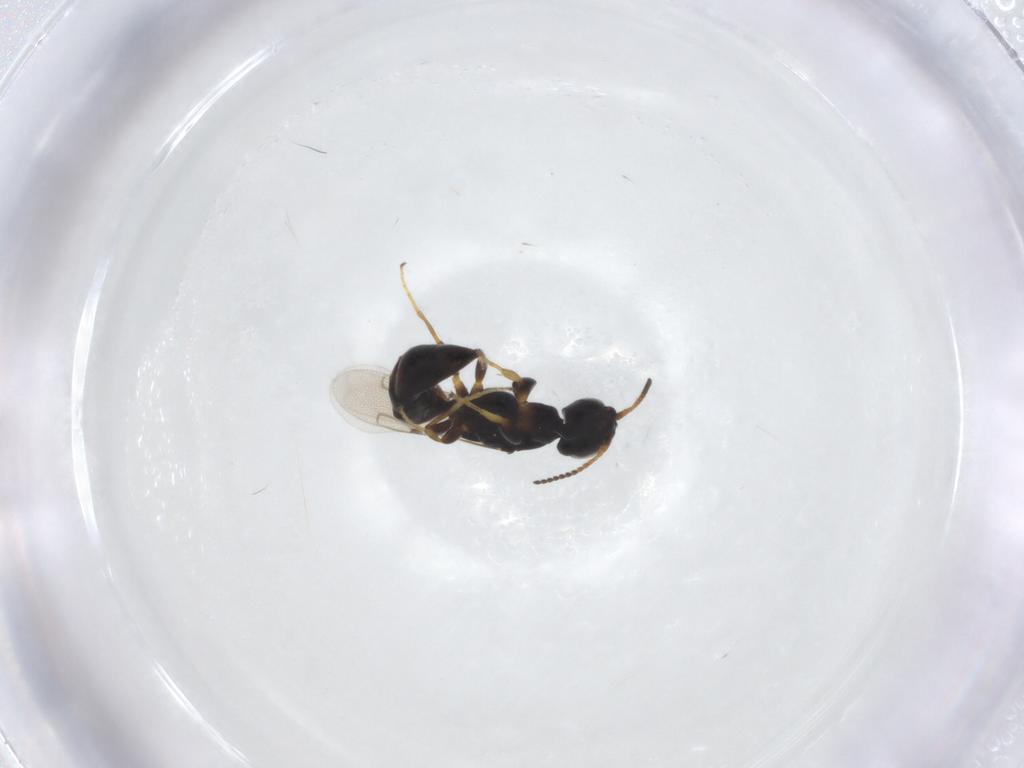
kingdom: Animalia
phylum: Arthropoda
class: Insecta
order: Hymenoptera
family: Bethylidae
